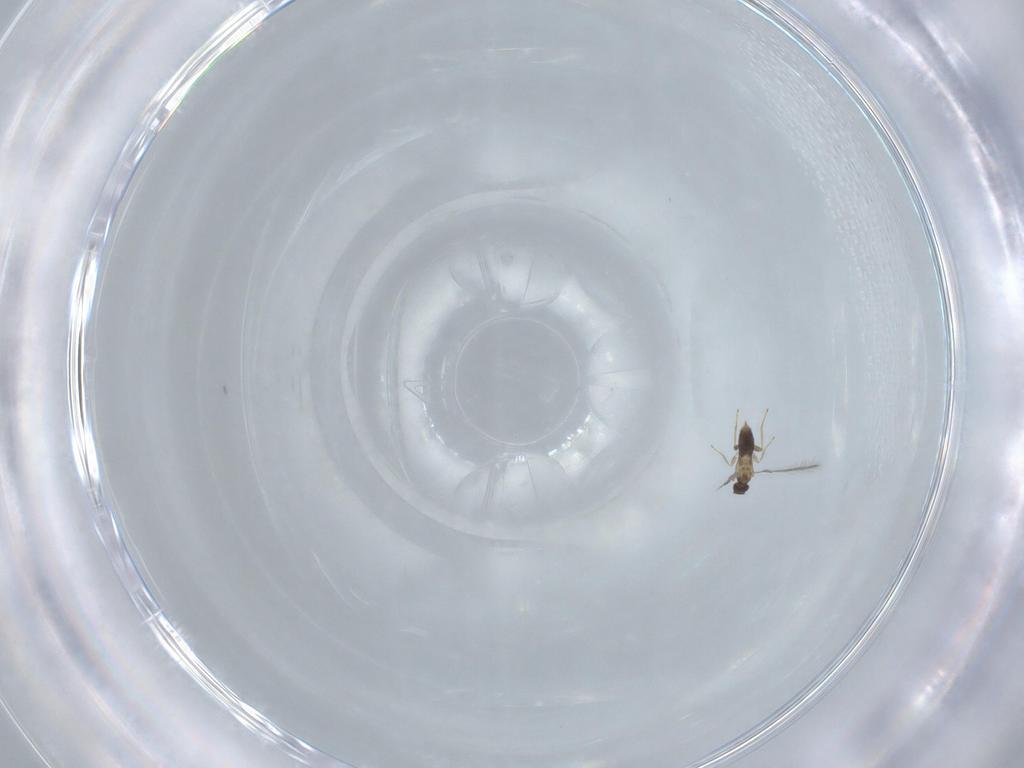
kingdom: Animalia
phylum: Arthropoda
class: Insecta
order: Hymenoptera
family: Mymaridae
